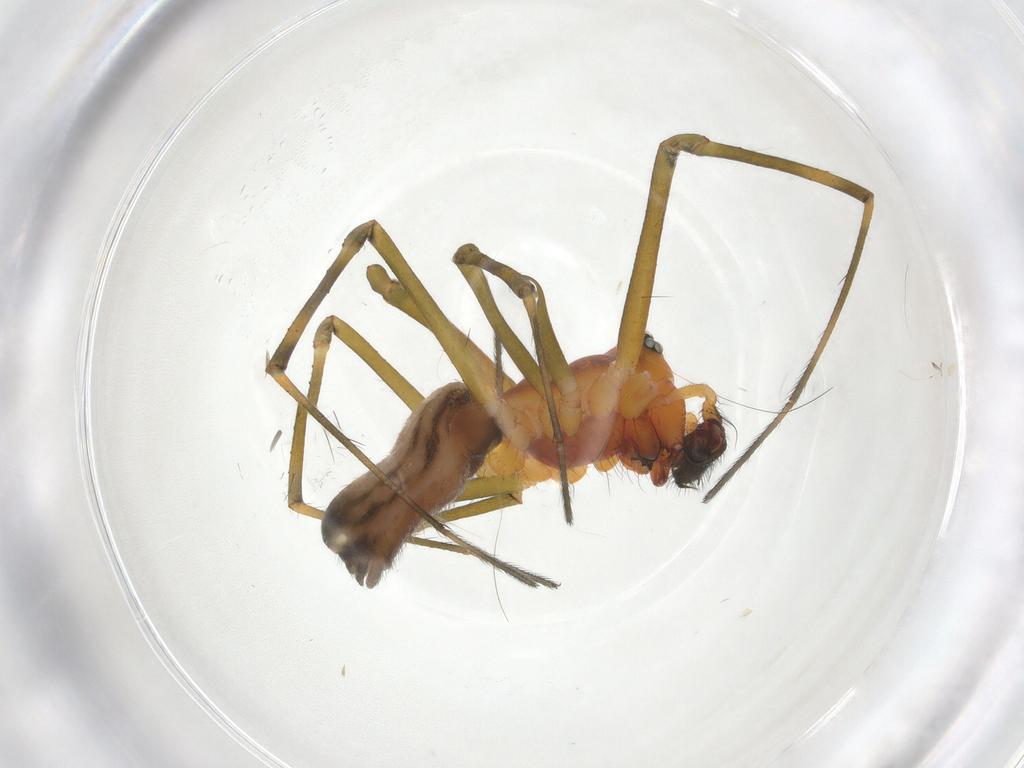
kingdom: Animalia
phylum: Arthropoda
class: Arachnida
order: Araneae
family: Linyphiidae
